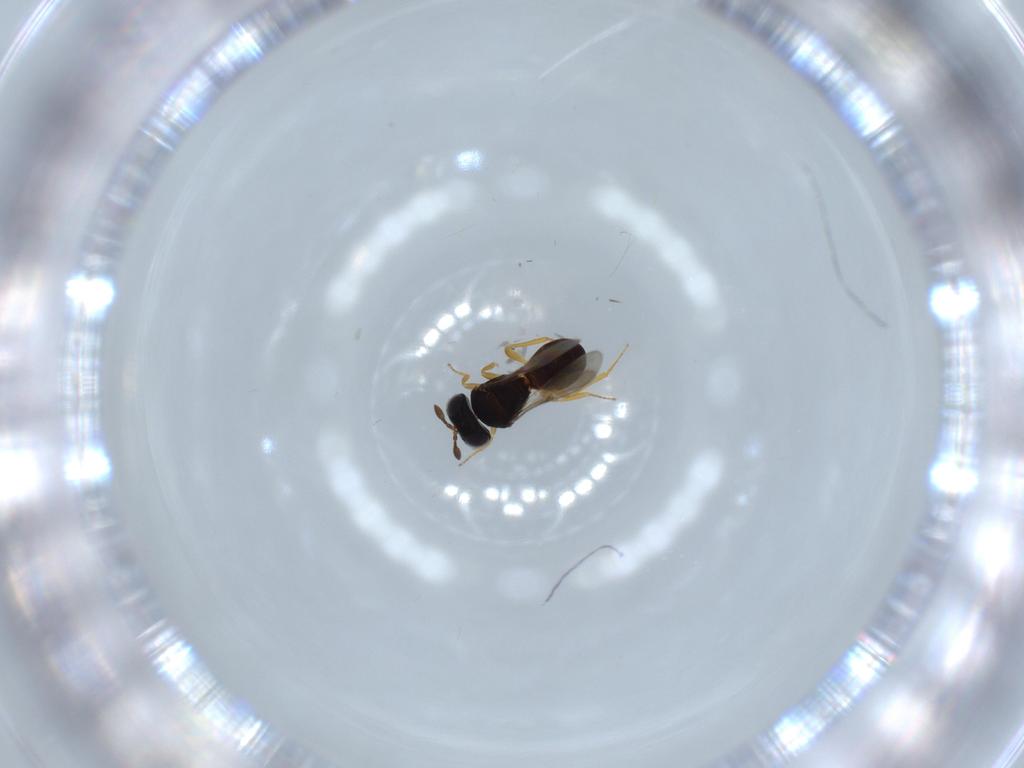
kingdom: Animalia
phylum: Arthropoda
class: Insecta
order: Hymenoptera
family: Scelionidae
